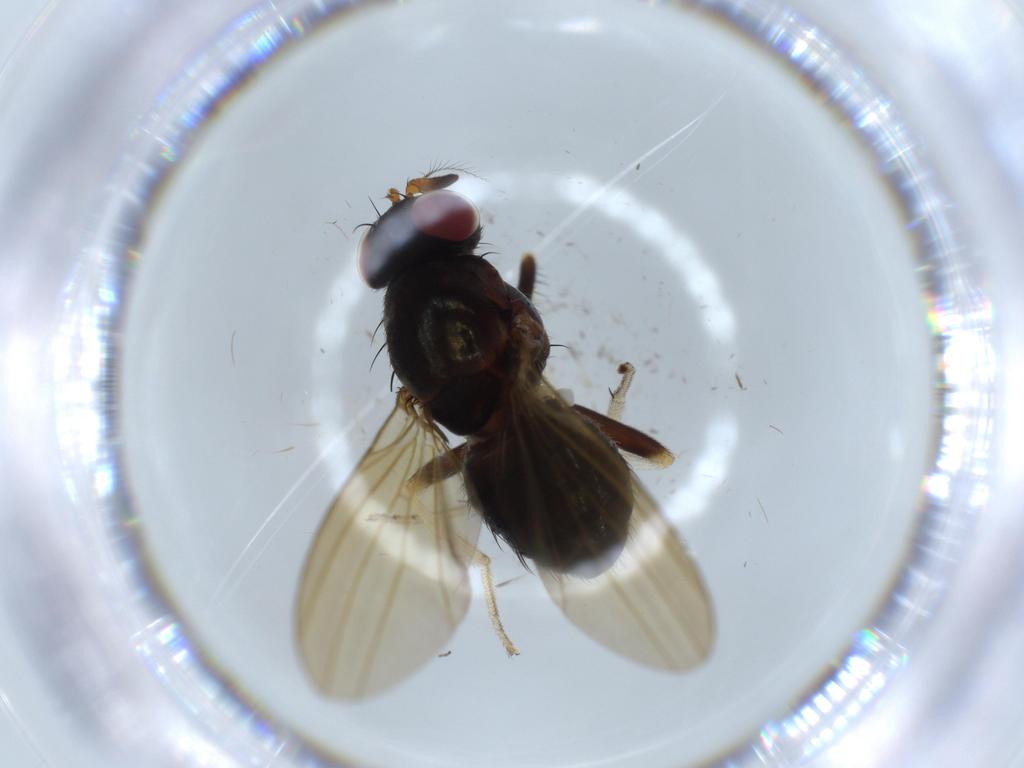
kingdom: Animalia
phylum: Arthropoda
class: Insecta
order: Diptera
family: Lauxaniidae
